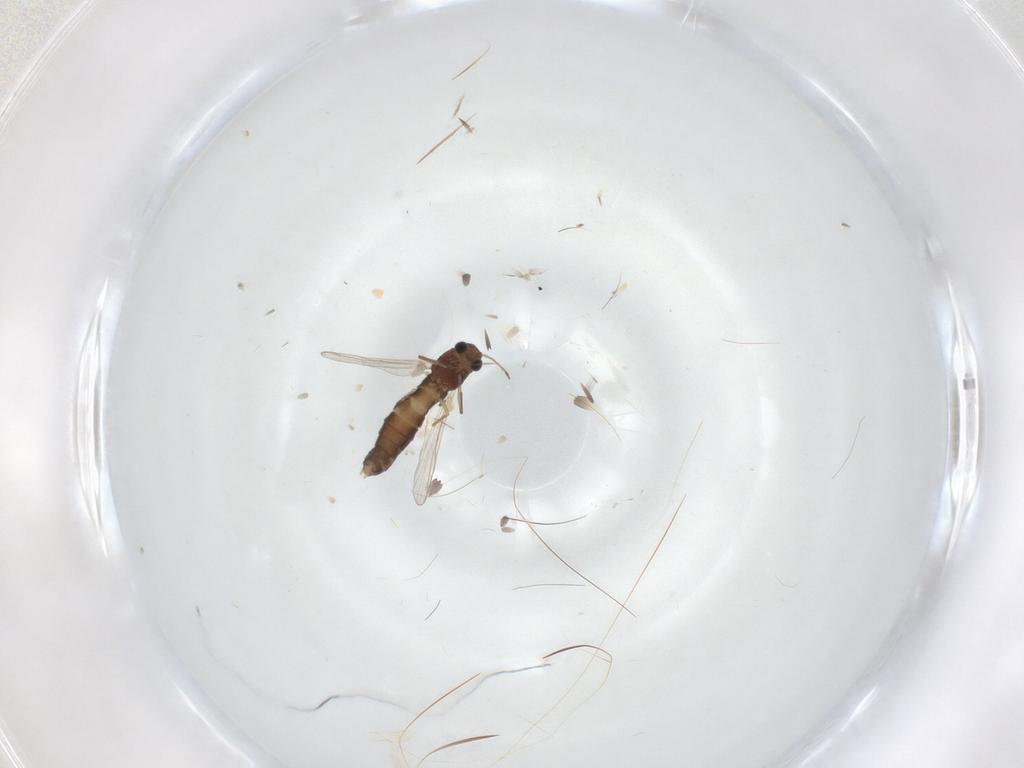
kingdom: Animalia
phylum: Arthropoda
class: Insecta
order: Diptera
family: Chironomidae
